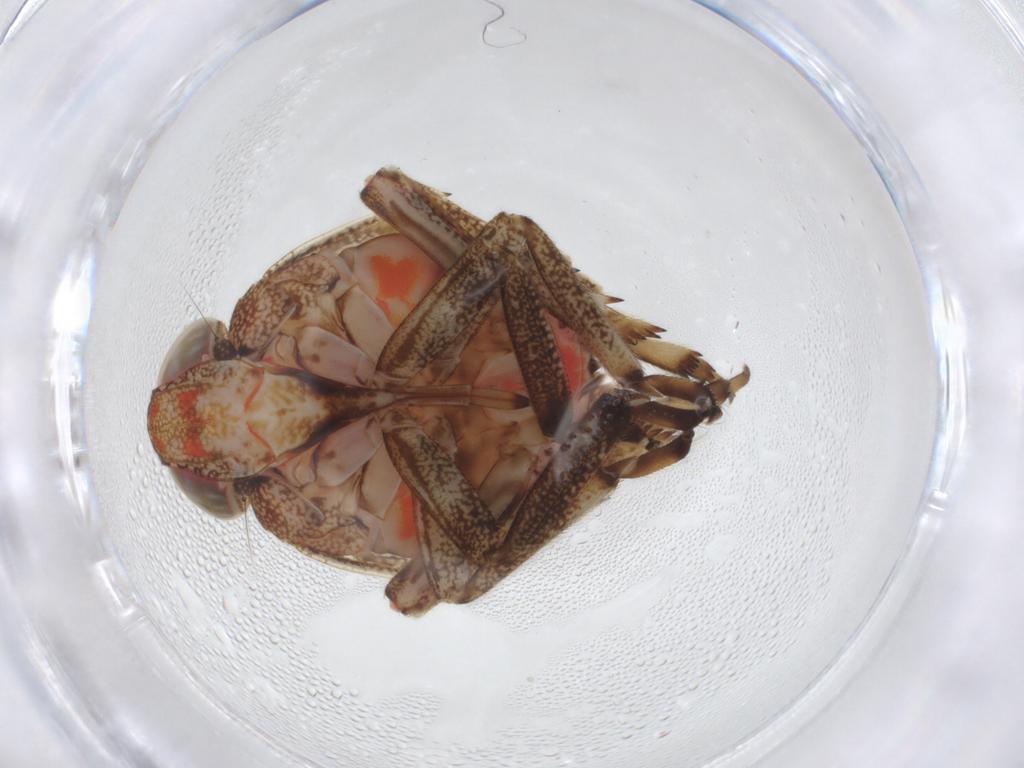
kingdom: Animalia
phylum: Arthropoda
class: Insecta
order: Hemiptera
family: Issidae
